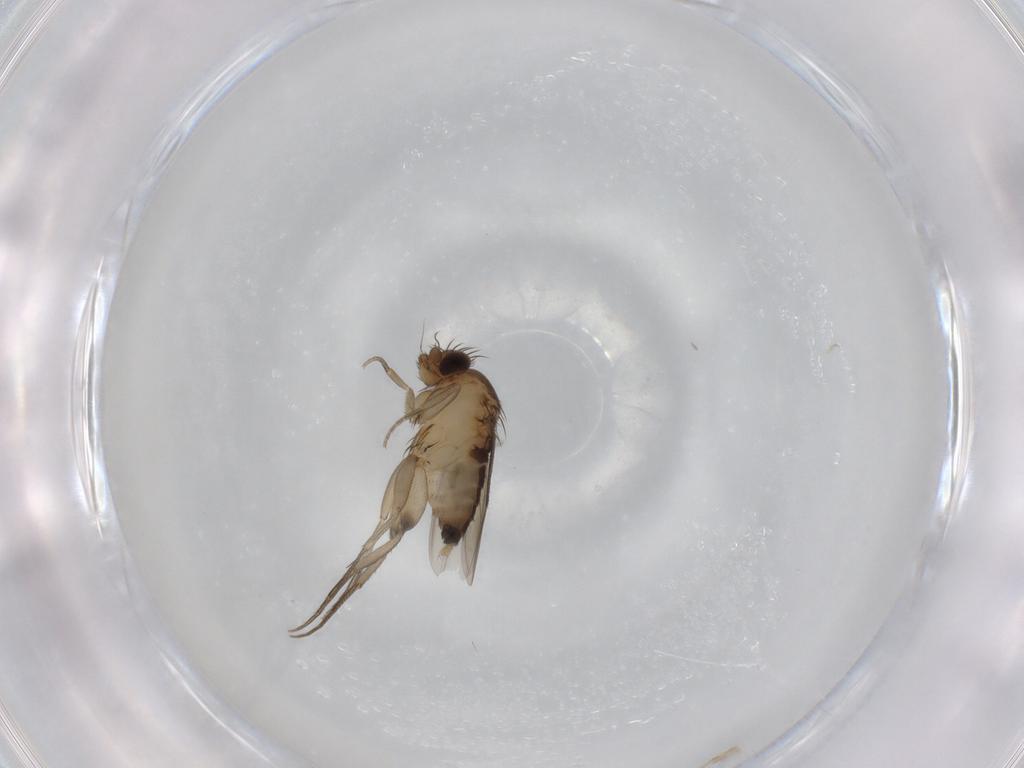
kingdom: Animalia
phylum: Arthropoda
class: Insecta
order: Diptera
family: Phoridae
